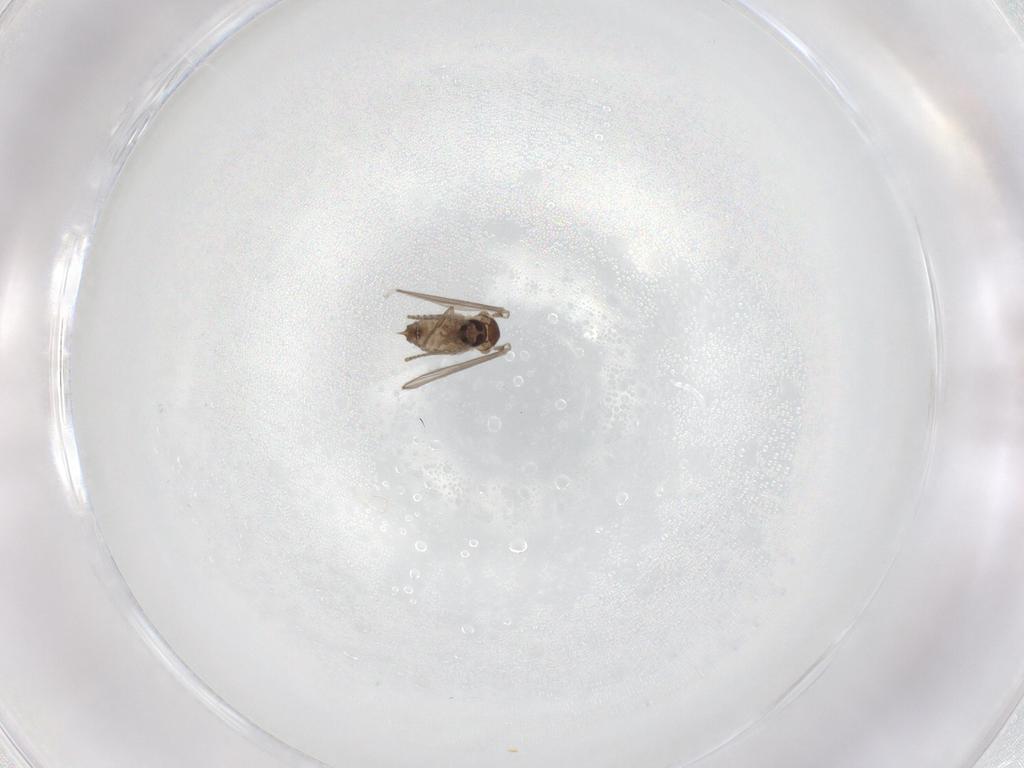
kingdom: Animalia
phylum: Arthropoda
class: Insecta
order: Diptera
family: Psychodidae
